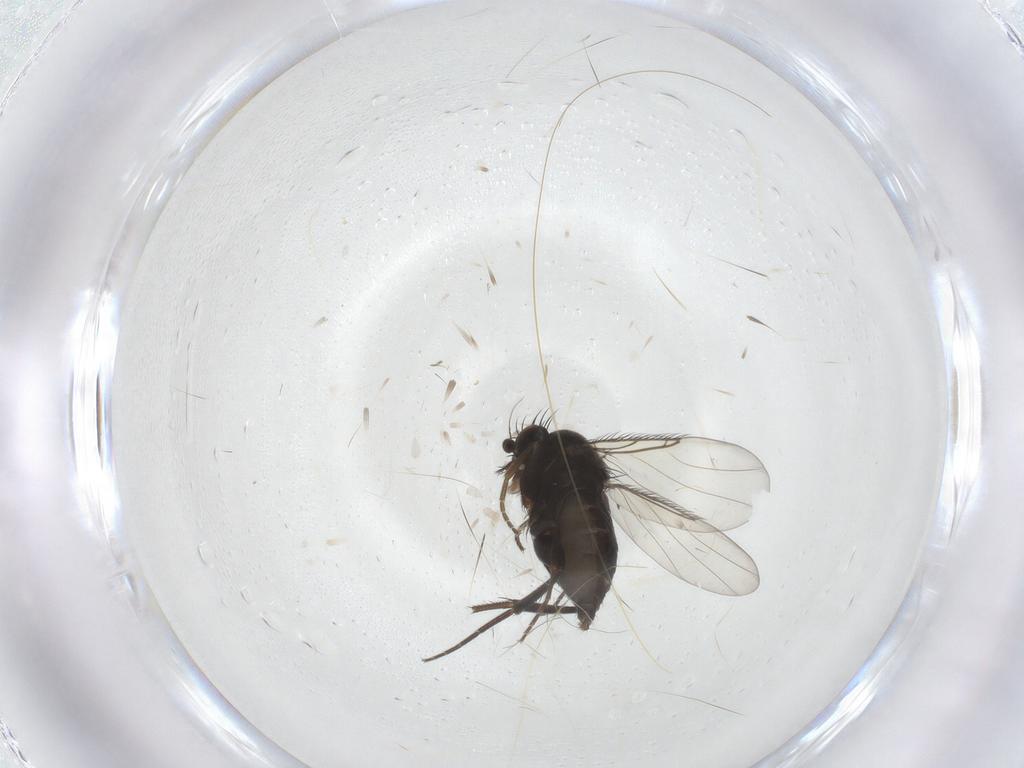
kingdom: Animalia
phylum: Arthropoda
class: Insecta
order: Diptera
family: Phoridae
